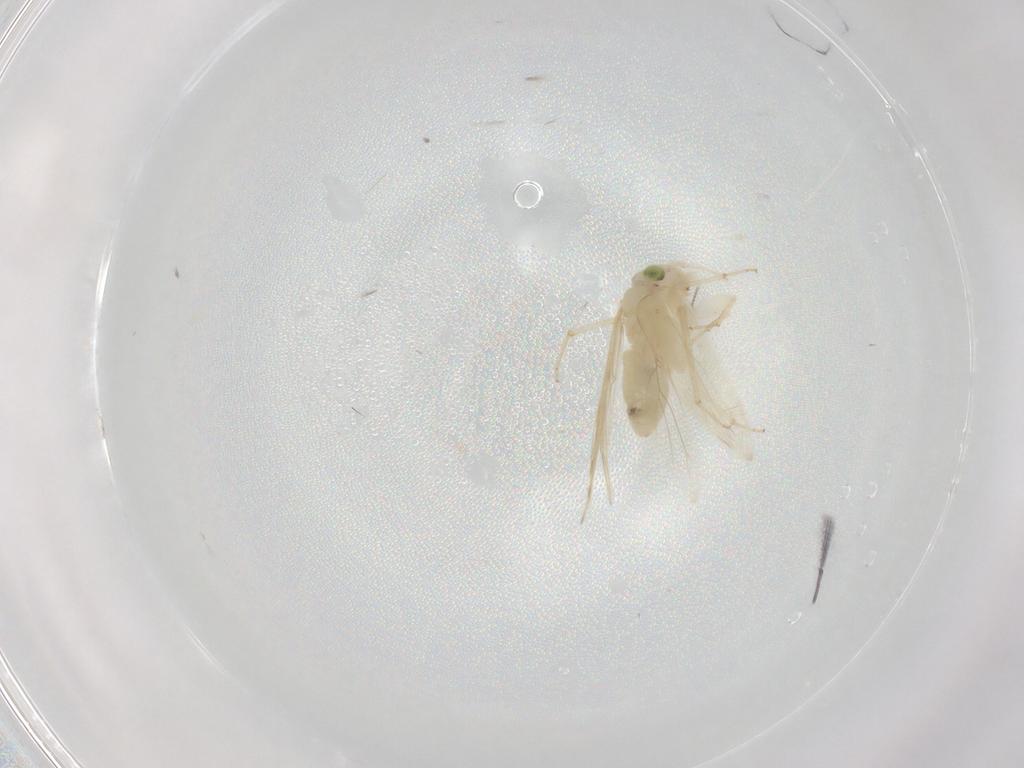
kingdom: Animalia
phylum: Arthropoda
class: Insecta
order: Psocodea
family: Lepidopsocidae
